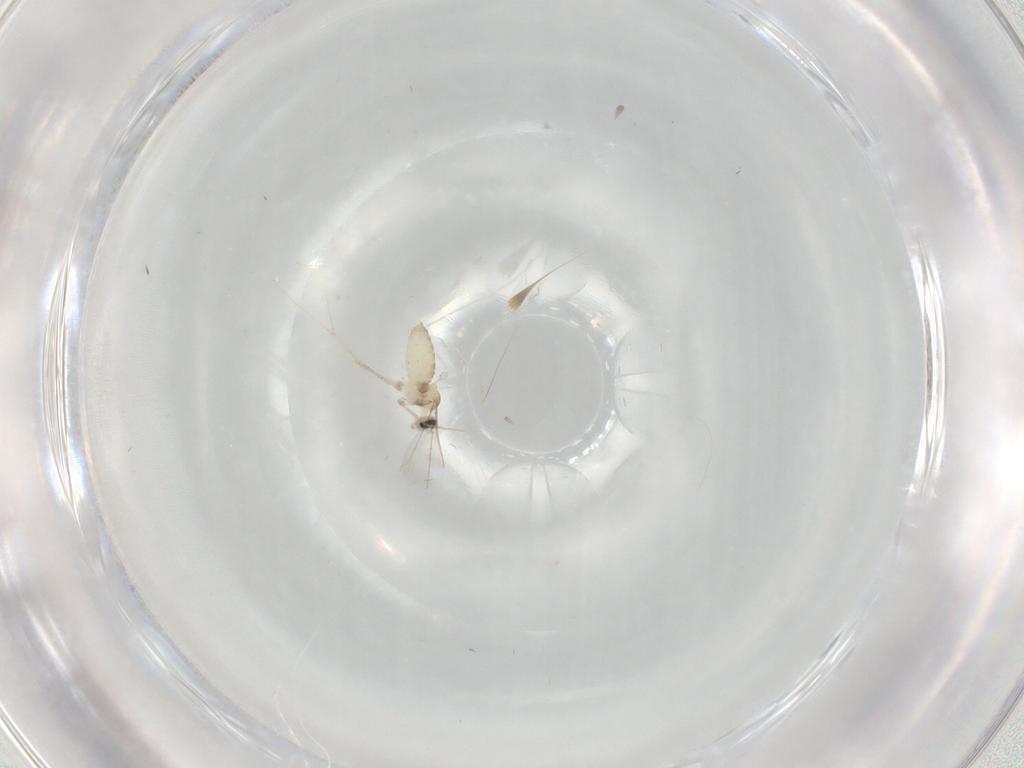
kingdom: Animalia
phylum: Arthropoda
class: Insecta
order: Diptera
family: Cecidomyiidae
